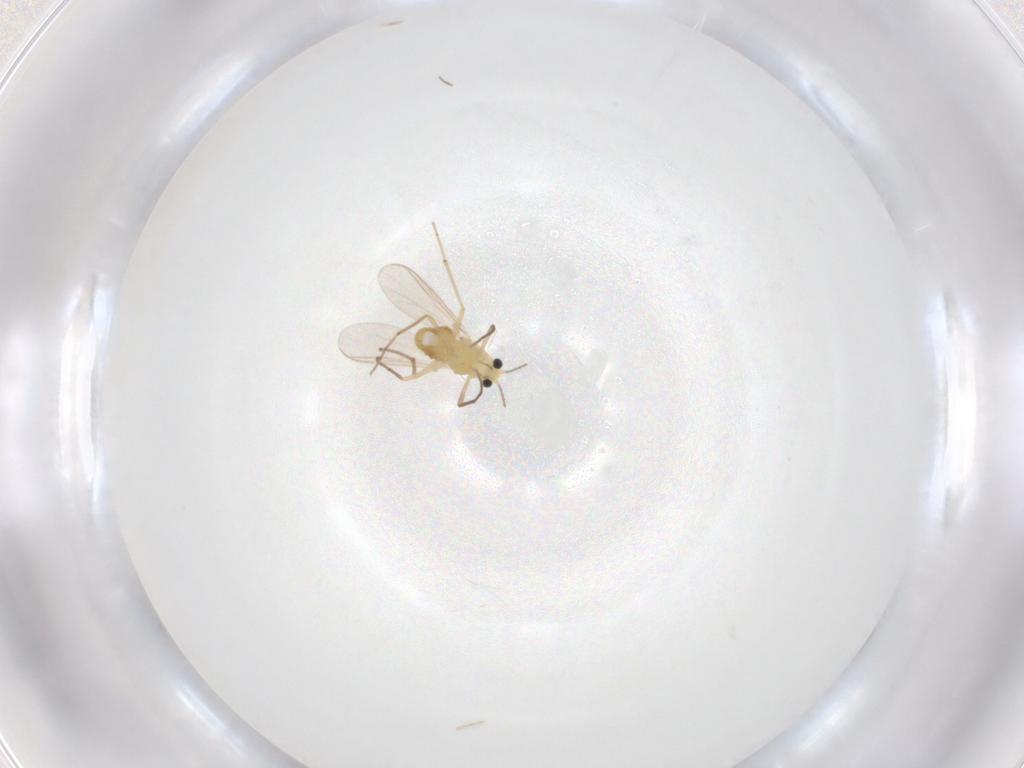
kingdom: Animalia
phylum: Arthropoda
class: Insecta
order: Diptera
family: Chironomidae
